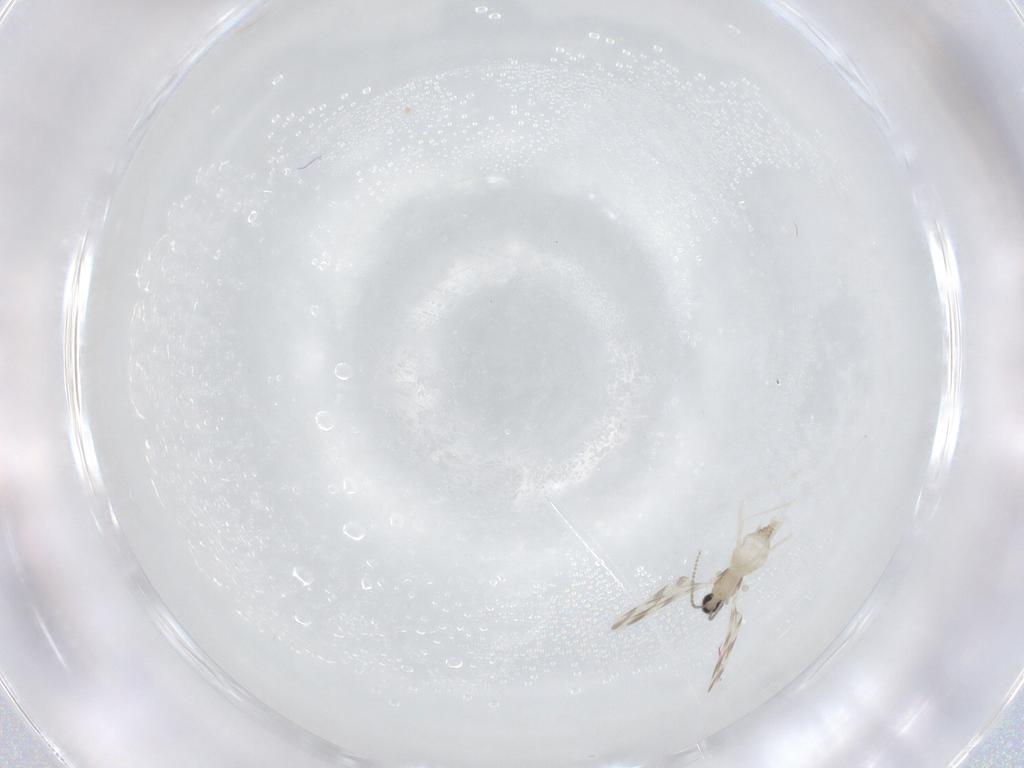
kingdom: Animalia
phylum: Arthropoda
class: Insecta
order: Diptera
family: Cecidomyiidae
